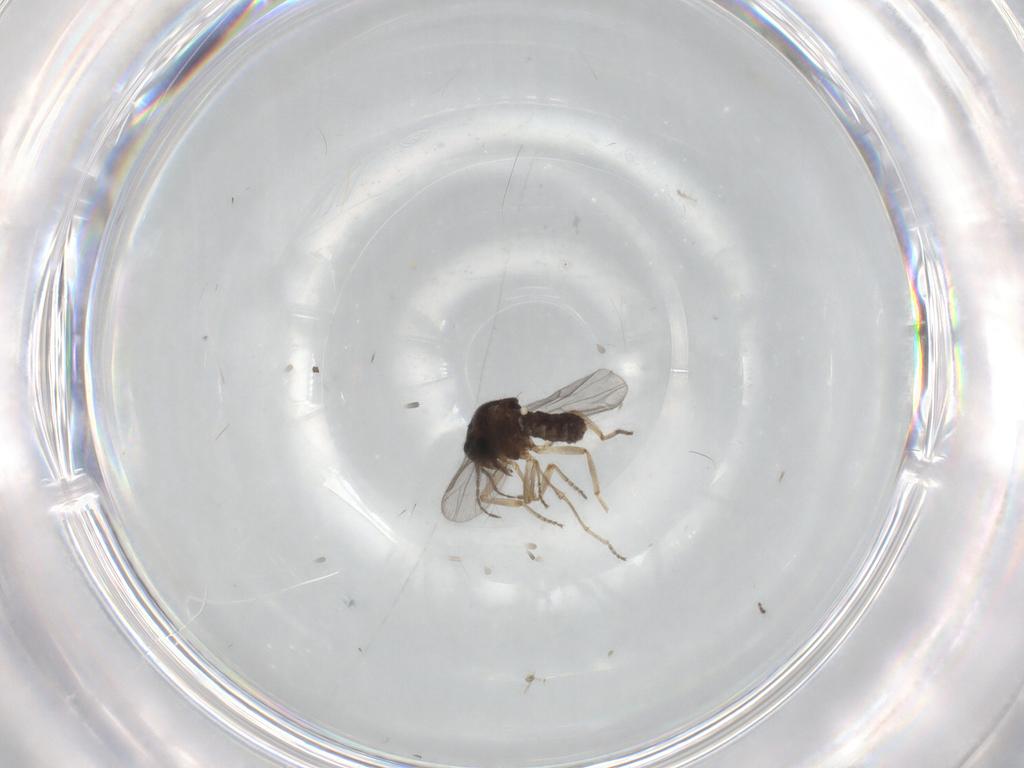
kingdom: Animalia
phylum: Arthropoda
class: Insecta
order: Diptera
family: Ceratopogonidae
